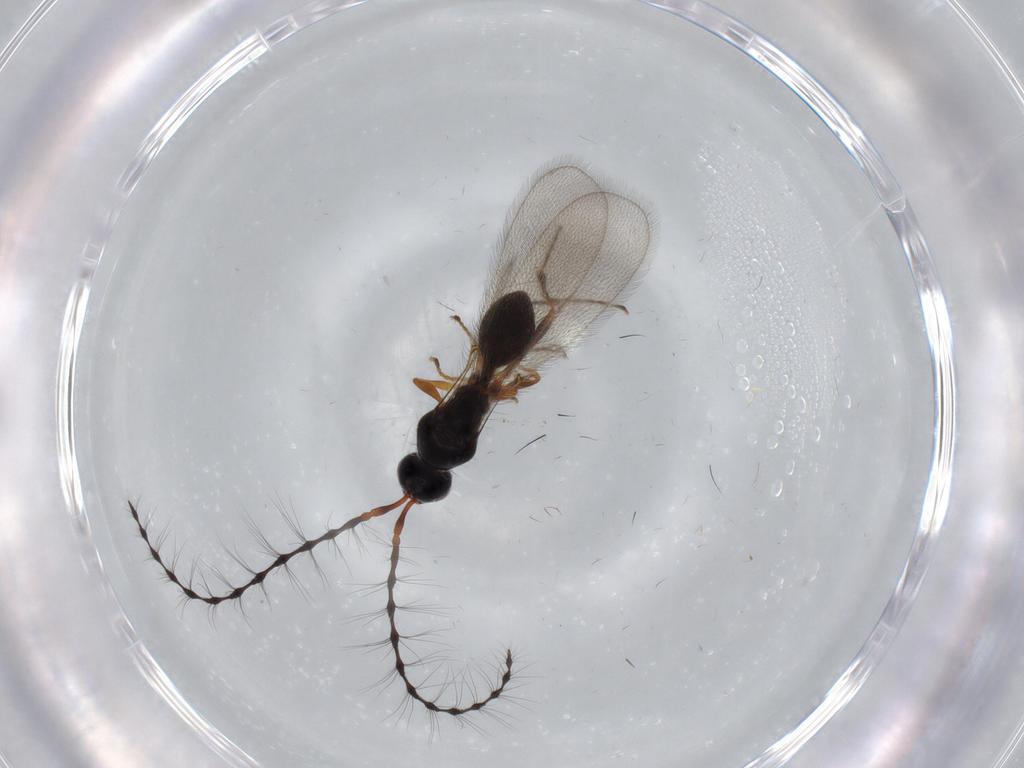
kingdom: Animalia
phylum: Arthropoda
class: Insecta
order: Hymenoptera
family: Diapriidae
